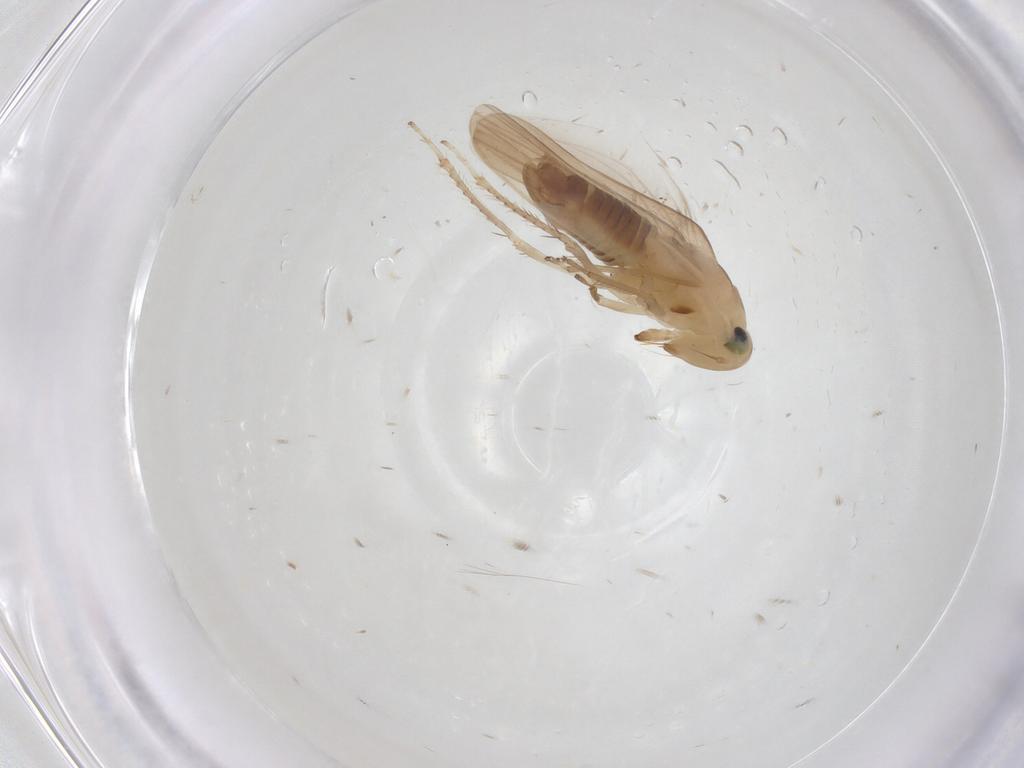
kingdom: Animalia
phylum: Arthropoda
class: Insecta
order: Hemiptera
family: Cicadellidae
